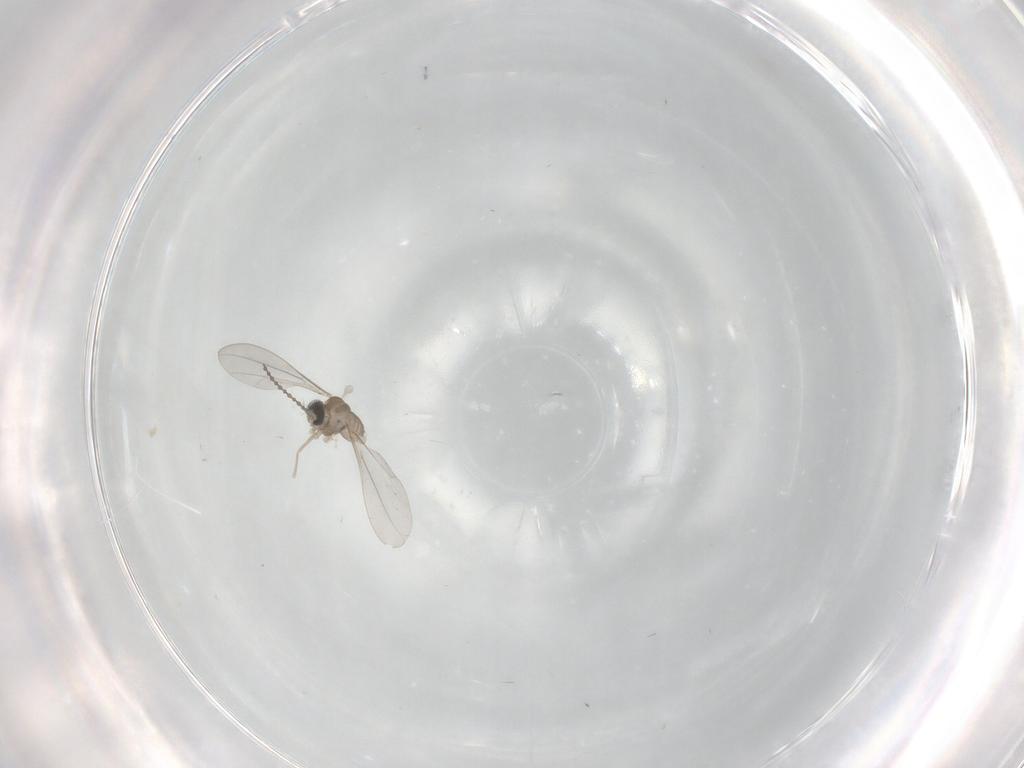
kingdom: Animalia
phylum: Arthropoda
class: Insecta
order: Diptera
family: Cecidomyiidae
